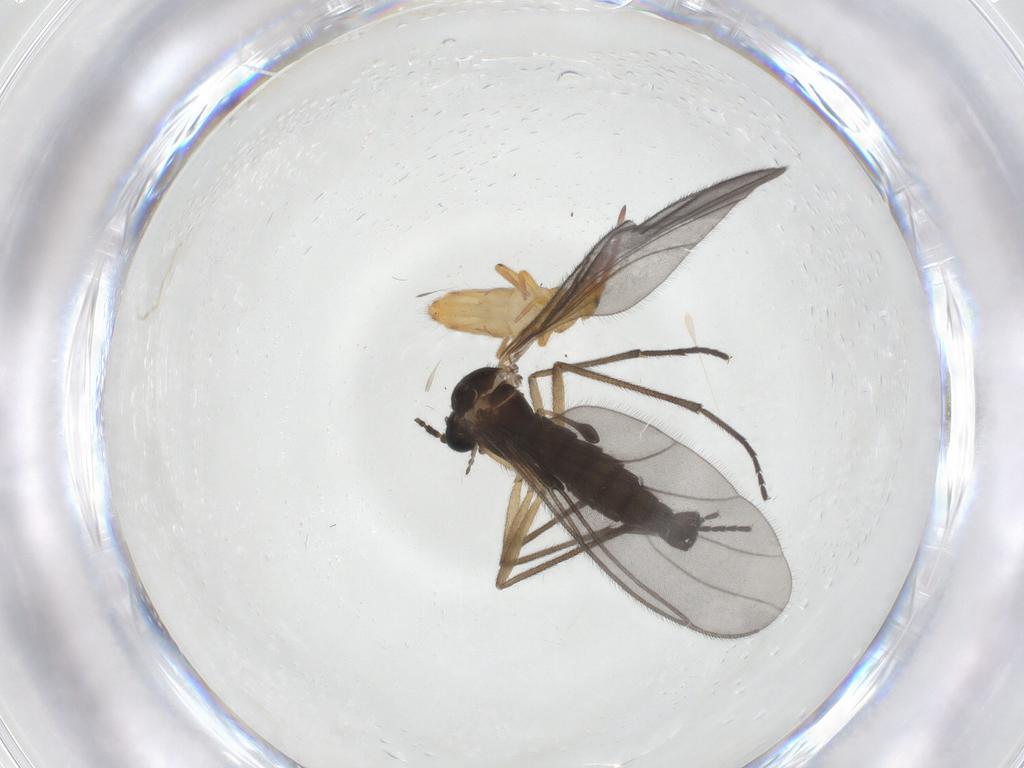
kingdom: Animalia
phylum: Arthropoda
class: Insecta
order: Diptera
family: Sciaridae
